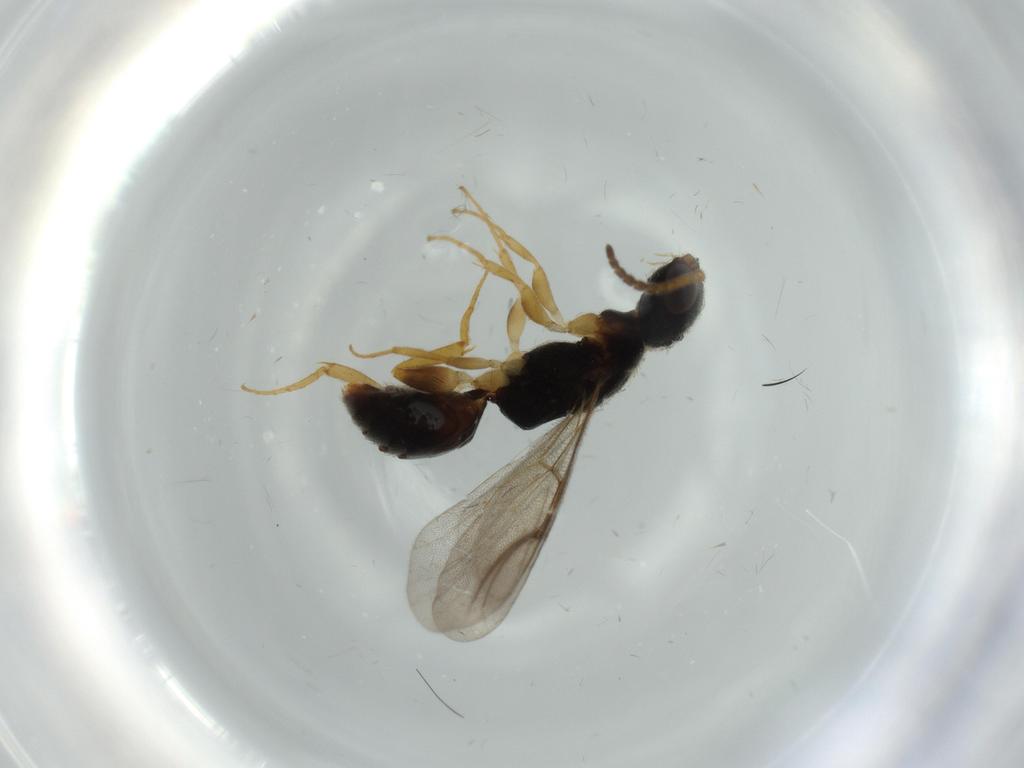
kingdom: Animalia
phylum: Arthropoda
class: Insecta
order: Hymenoptera
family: Bethylidae
